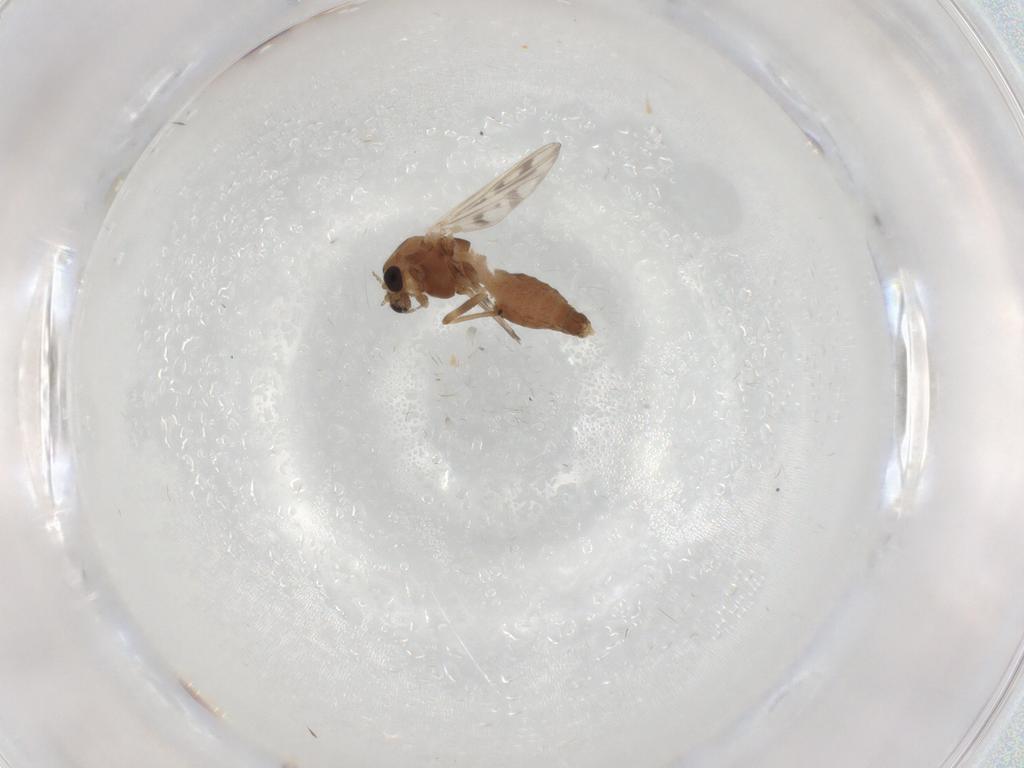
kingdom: Animalia
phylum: Arthropoda
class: Insecta
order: Diptera
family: Chironomidae
